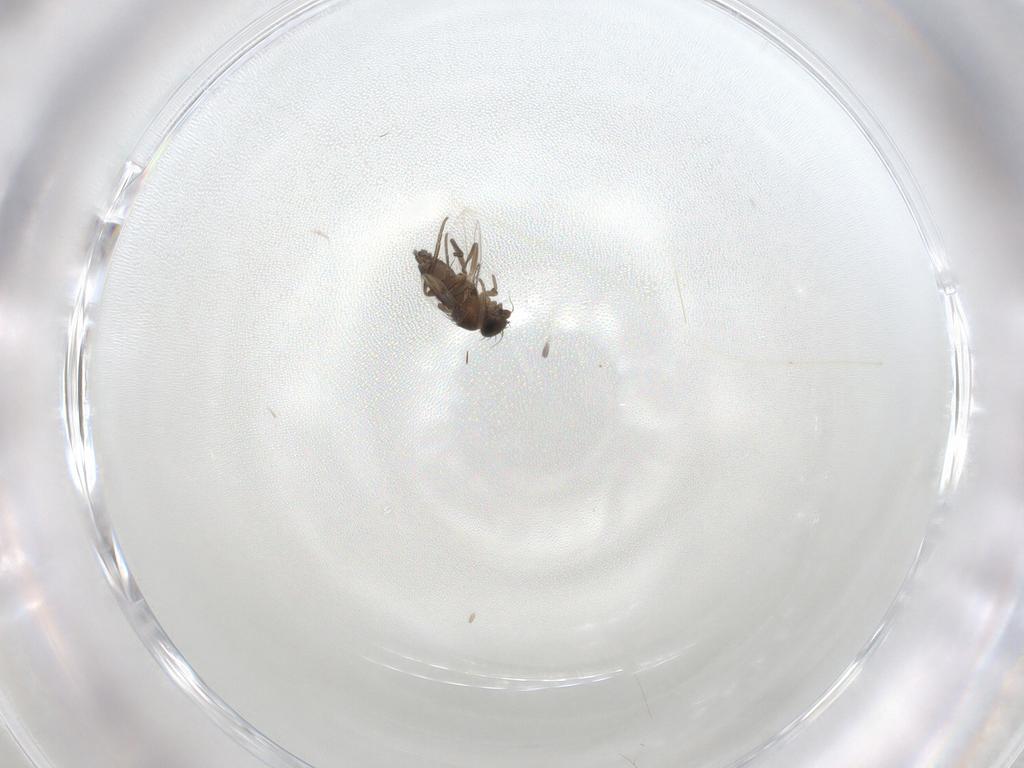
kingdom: Animalia
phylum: Arthropoda
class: Insecta
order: Diptera
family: Phoridae
